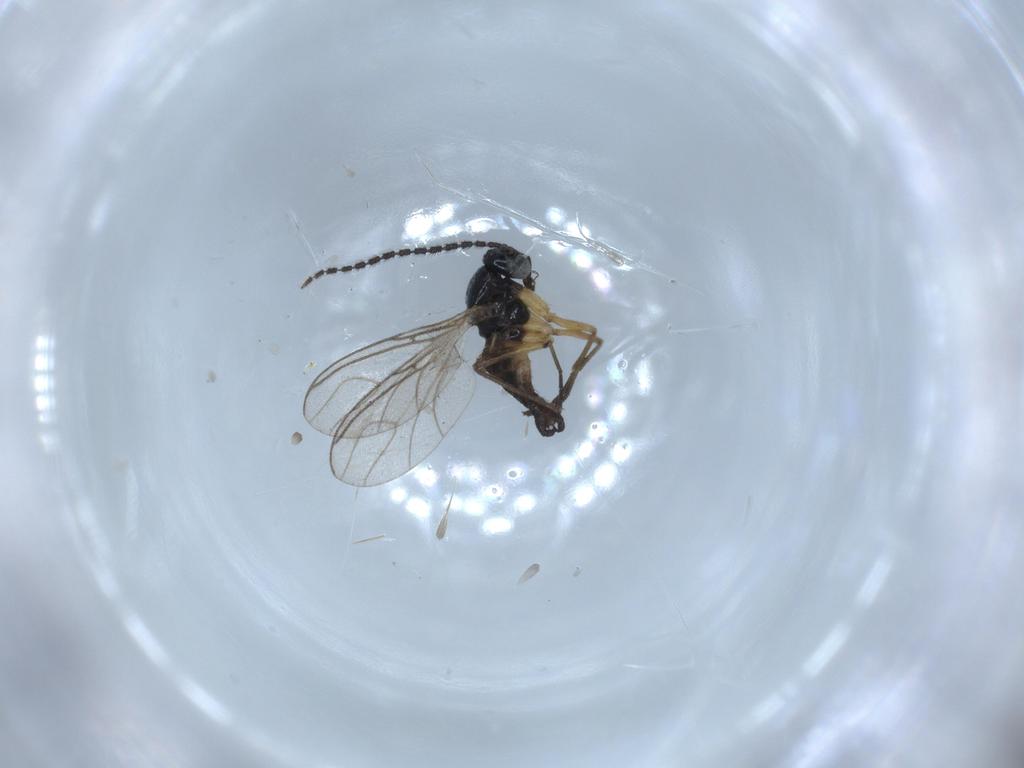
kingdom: Animalia
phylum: Arthropoda
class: Insecta
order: Diptera
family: Sciaridae
